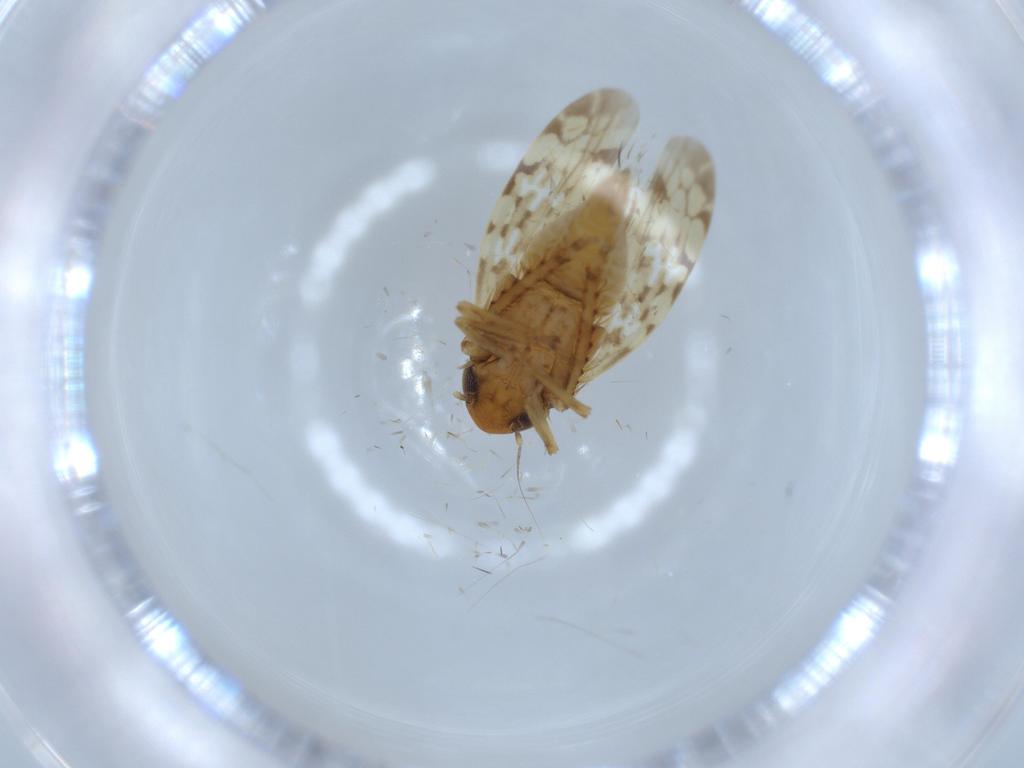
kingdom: Animalia
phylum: Arthropoda
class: Insecta
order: Hemiptera
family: Cicadellidae
